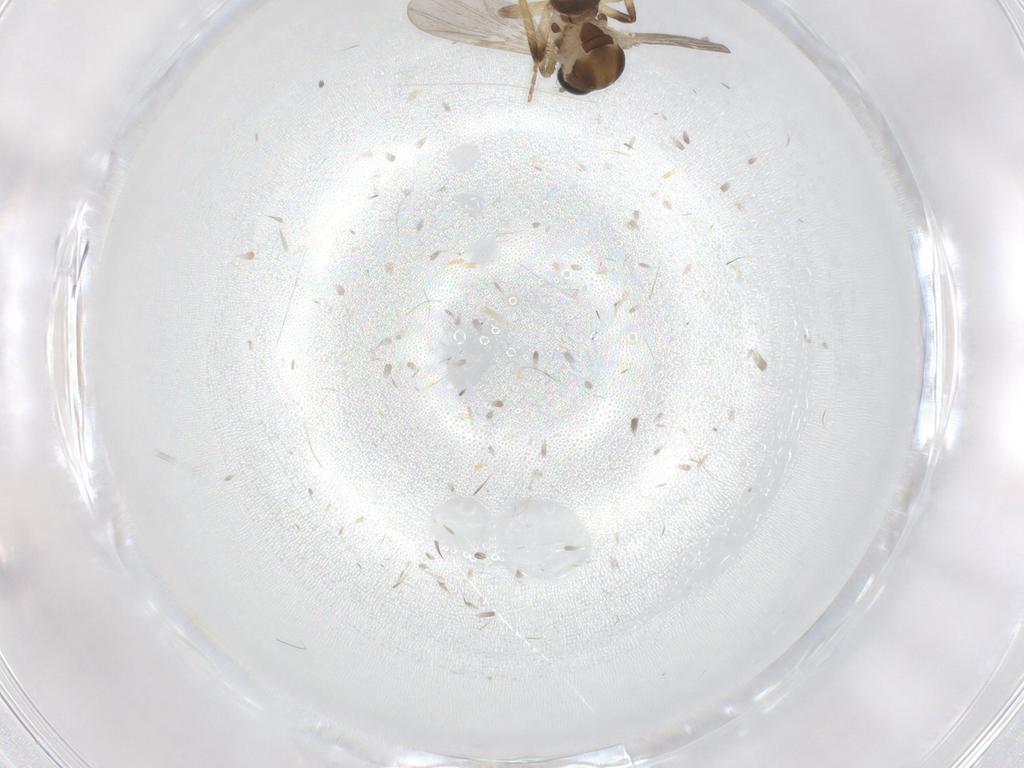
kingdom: Animalia
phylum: Arthropoda
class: Insecta
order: Diptera
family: Ceratopogonidae
